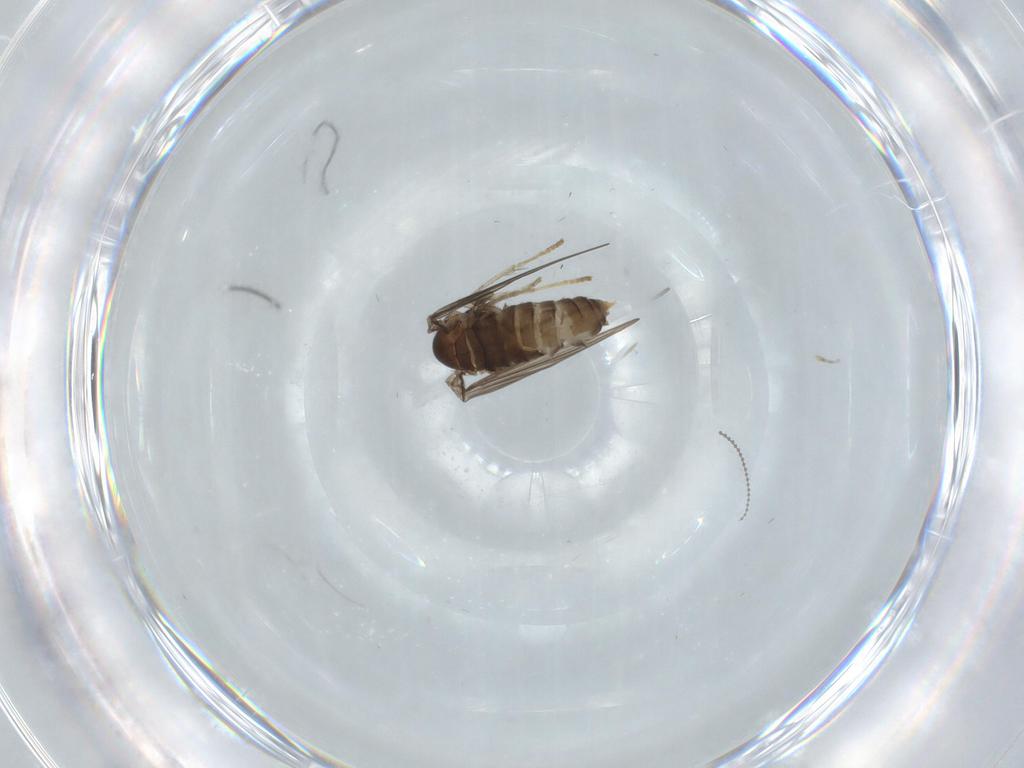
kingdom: Animalia
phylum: Arthropoda
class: Insecta
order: Diptera
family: Psychodidae
